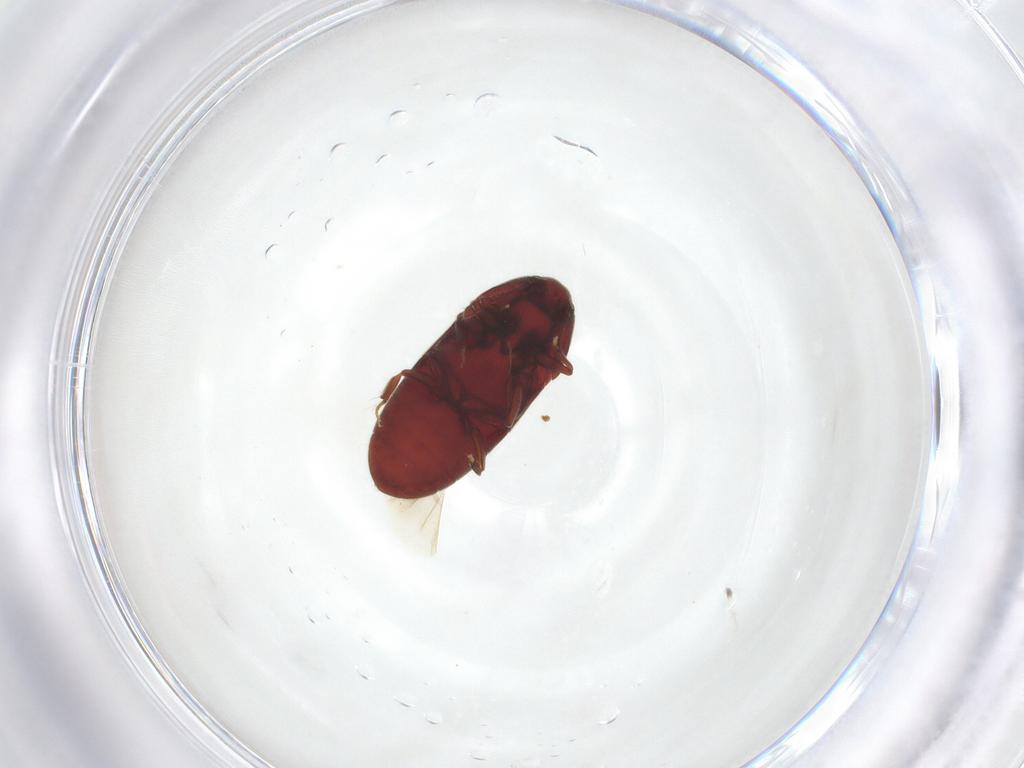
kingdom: Animalia
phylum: Arthropoda
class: Insecta
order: Coleoptera
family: Throscidae
